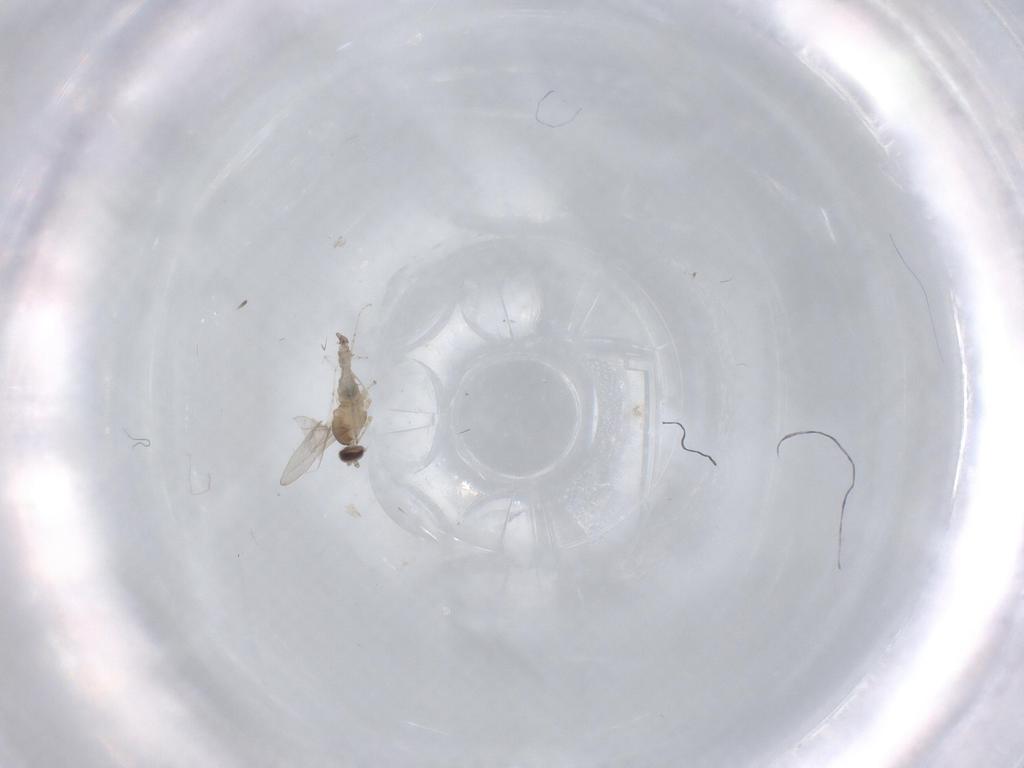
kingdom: Animalia
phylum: Arthropoda
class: Insecta
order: Diptera
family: Cecidomyiidae
